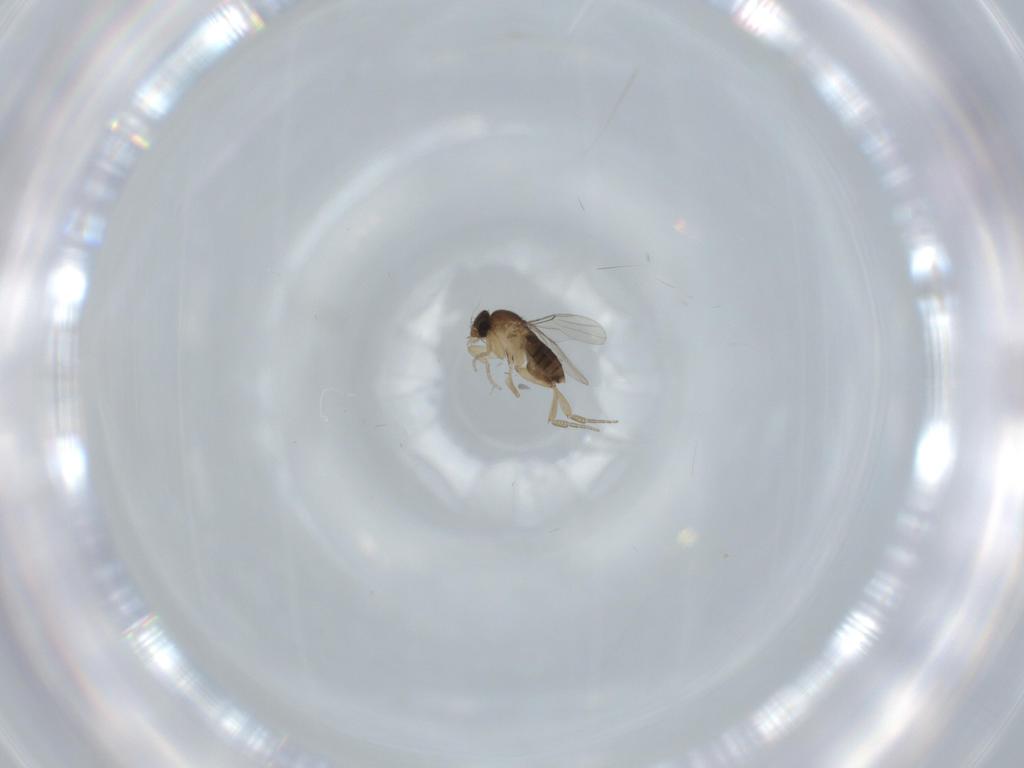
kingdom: Animalia
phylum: Arthropoda
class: Insecta
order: Diptera
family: Phoridae
